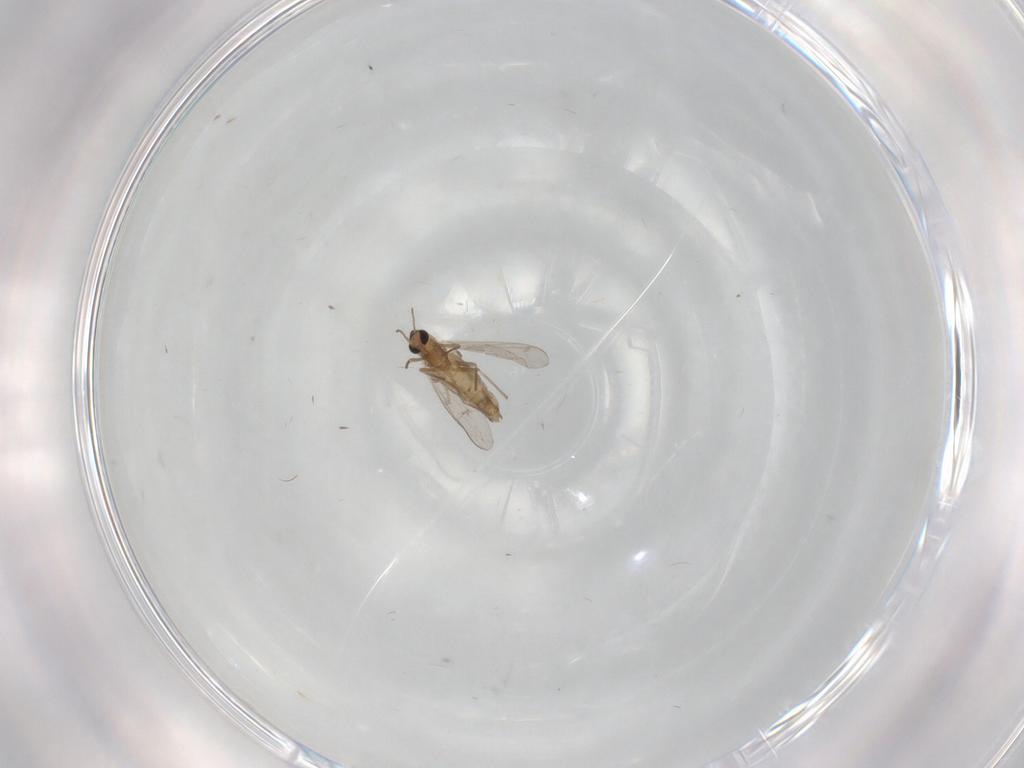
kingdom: Animalia
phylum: Arthropoda
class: Insecta
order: Diptera
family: Chironomidae
